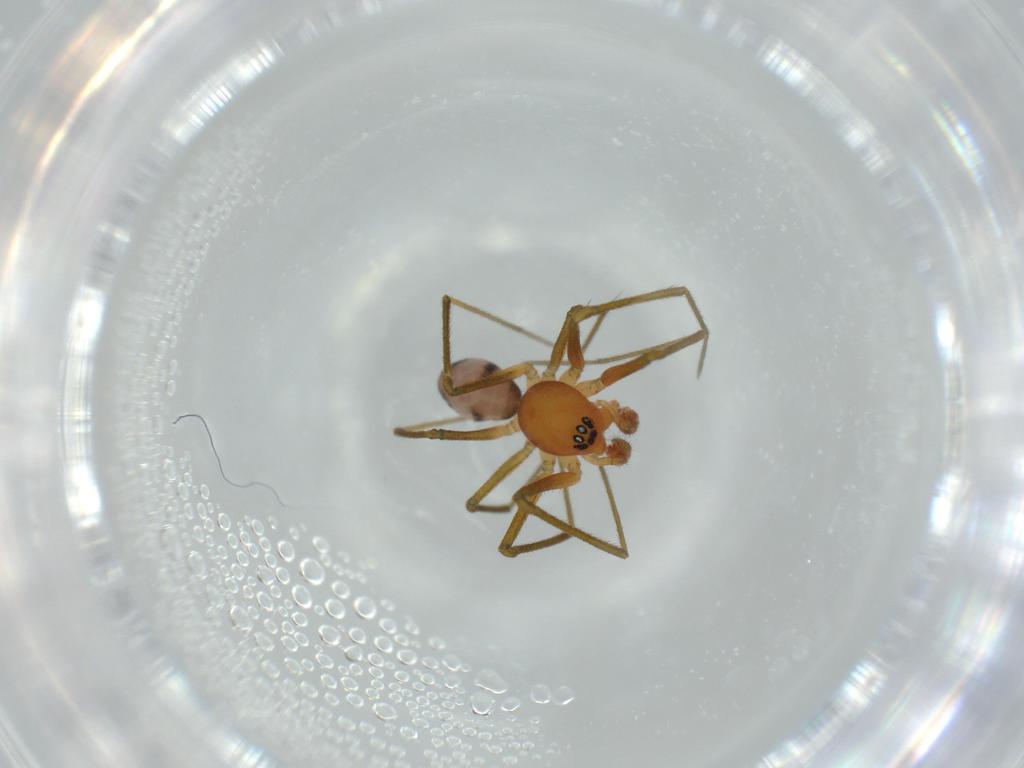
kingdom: Animalia
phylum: Arthropoda
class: Arachnida
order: Araneae
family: Linyphiidae
